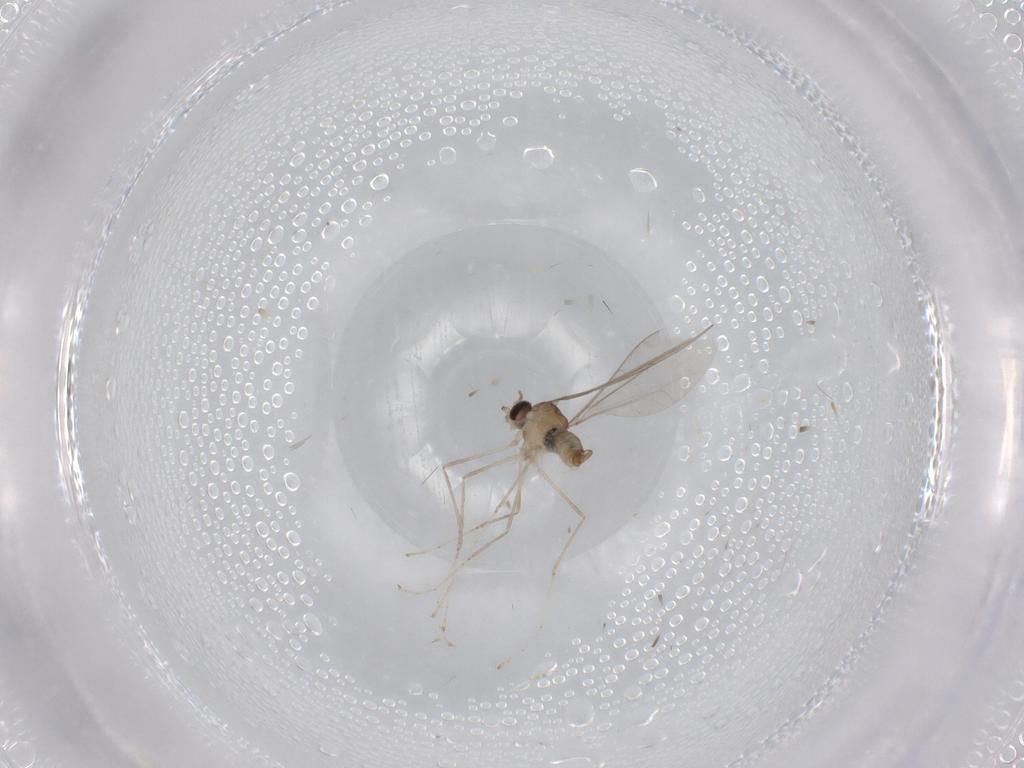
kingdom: Animalia
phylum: Arthropoda
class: Insecta
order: Diptera
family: Cecidomyiidae
